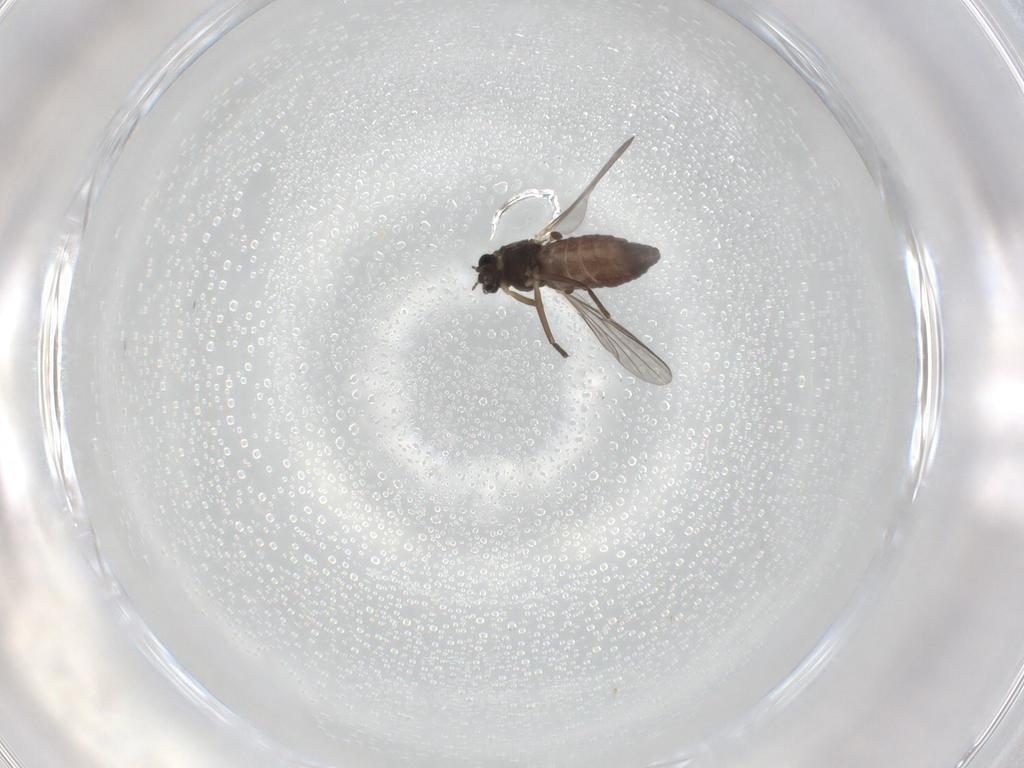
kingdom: Animalia
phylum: Arthropoda
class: Insecta
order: Diptera
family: Chironomidae
